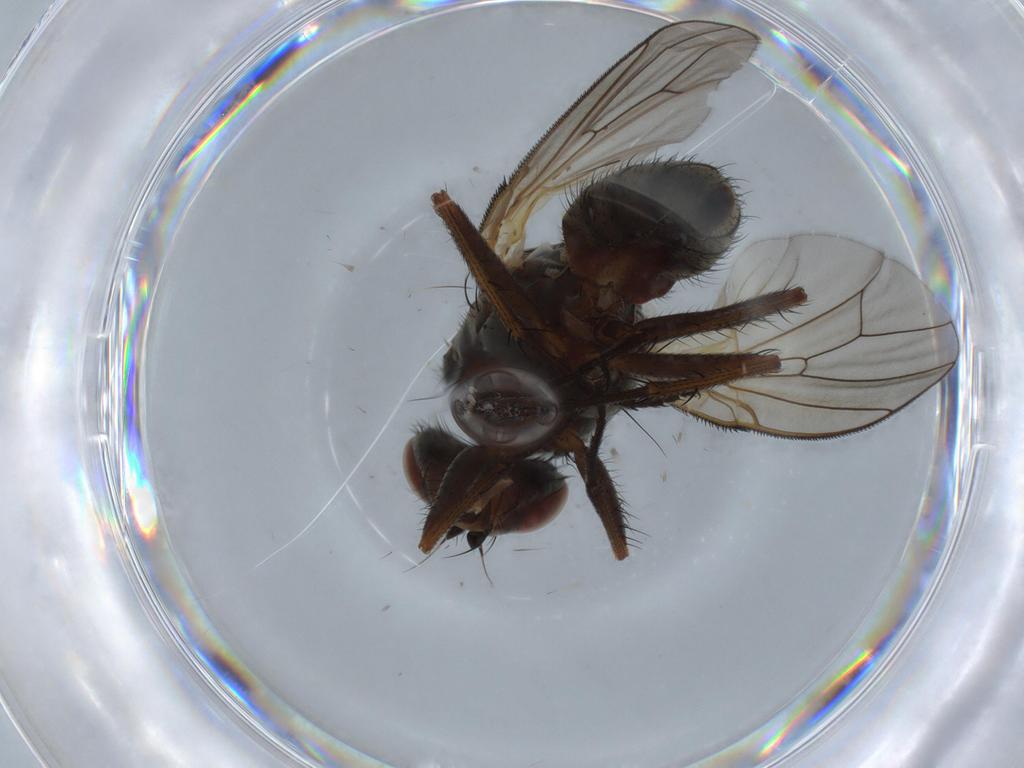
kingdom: Animalia
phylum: Arthropoda
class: Insecta
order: Diptera
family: Anthomyiidae
